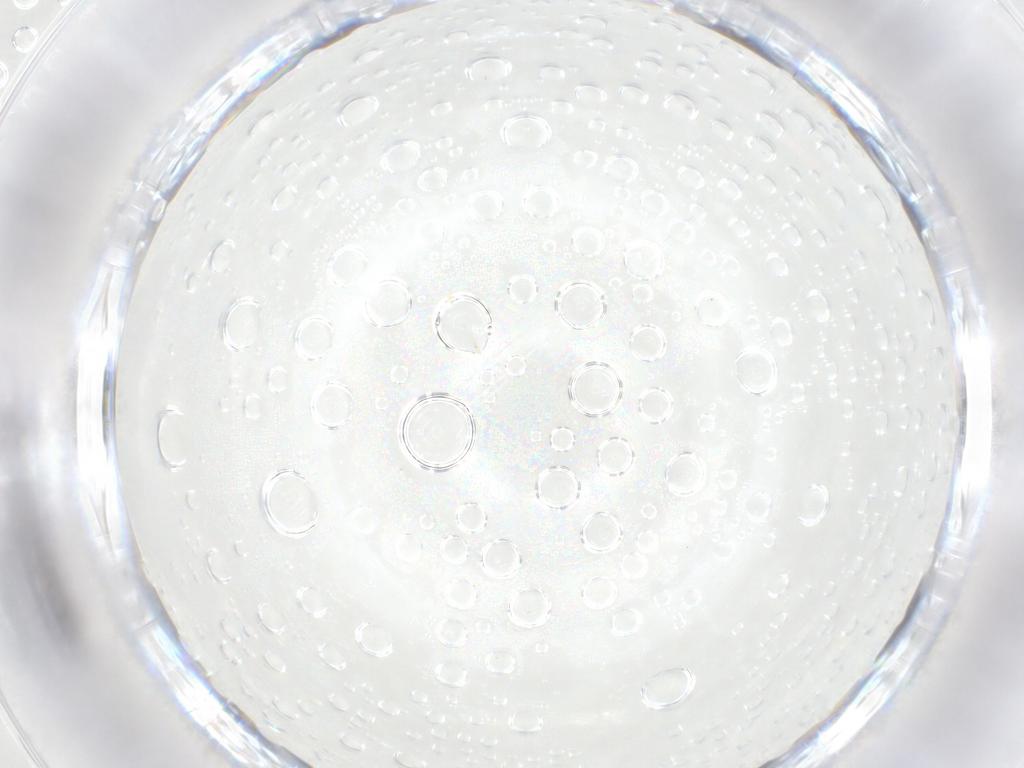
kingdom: Animalia
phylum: Arthropoda
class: Insecta
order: Lepidoptera
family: Erebidae
